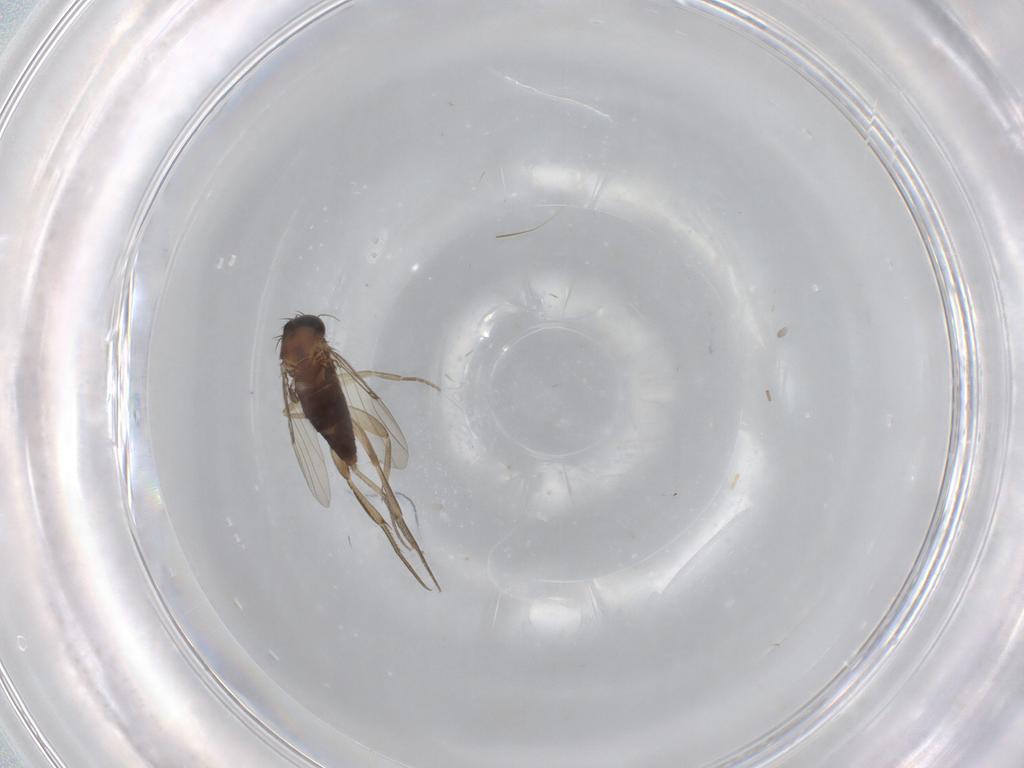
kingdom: Animalia
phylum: Arthropoda
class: Insecta
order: Diptera
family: Phoridae
